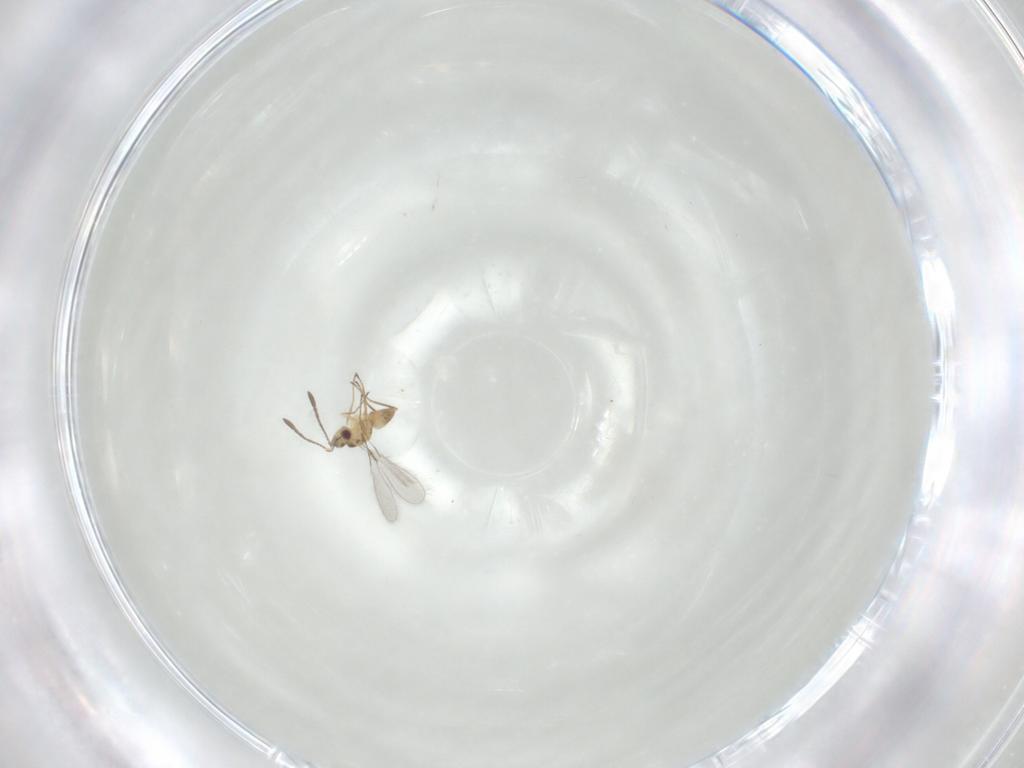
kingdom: Animalia
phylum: Arthropoda
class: Insecta
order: Hymenoptera
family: Mymaridae
